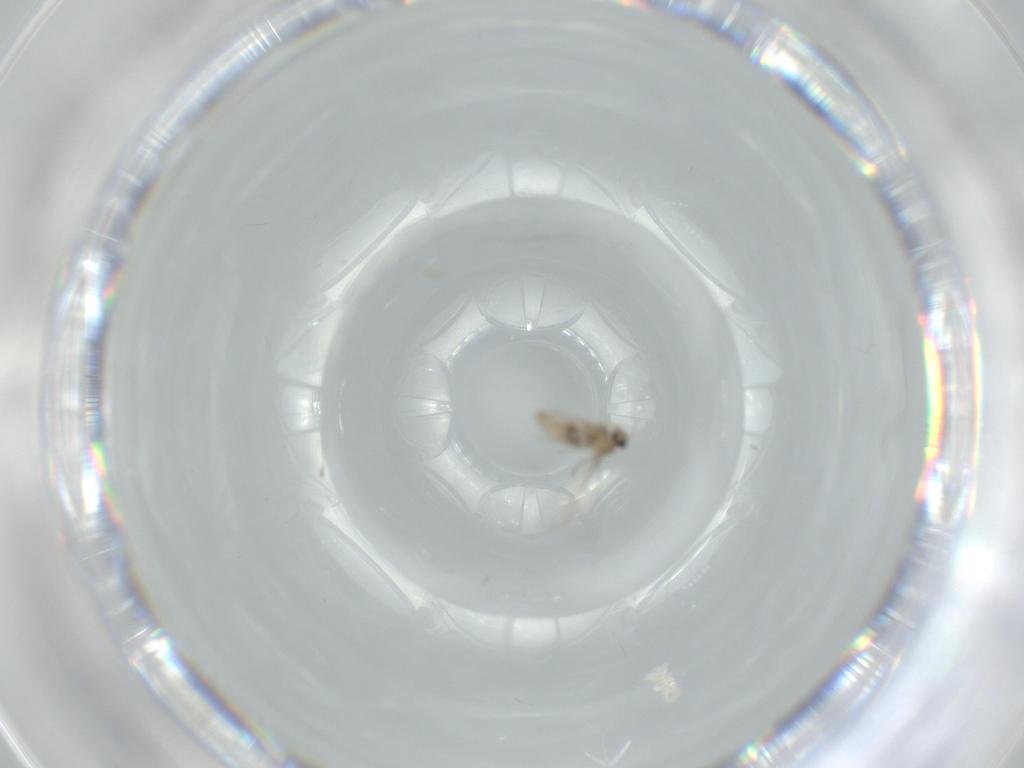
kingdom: Animalia
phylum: Arthropoda
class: Insecta
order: Diptera
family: Cecidomyiidae
